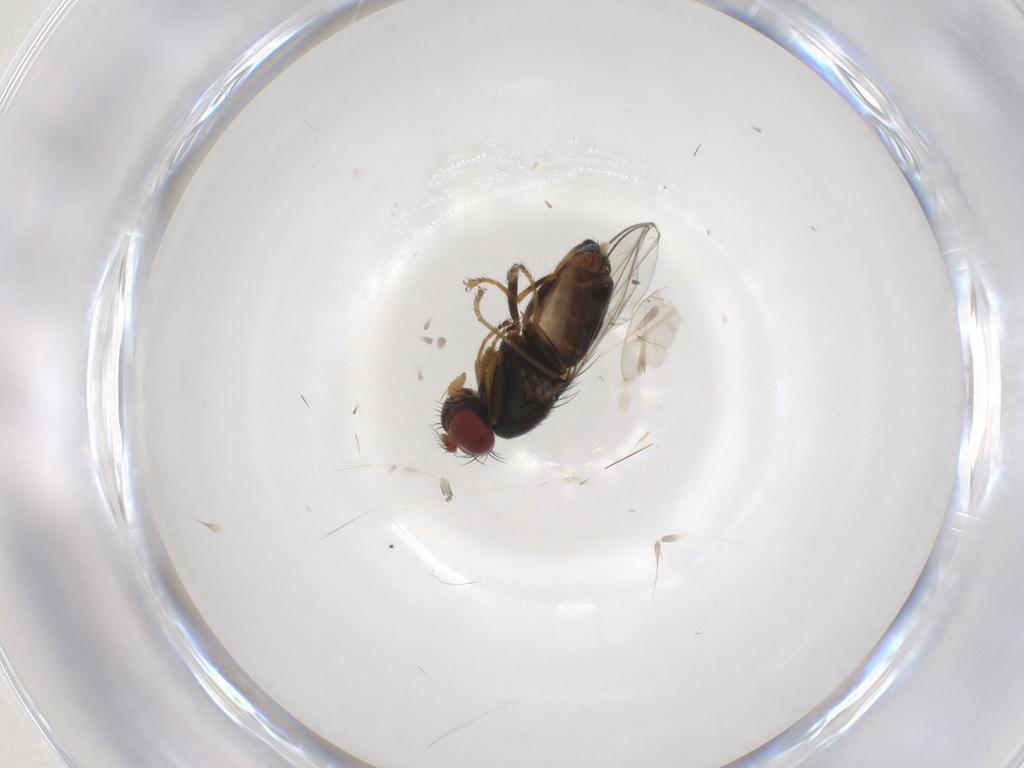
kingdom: Animalia
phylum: Arthropoda
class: Insecta
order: Diptera
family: Ephydridae
